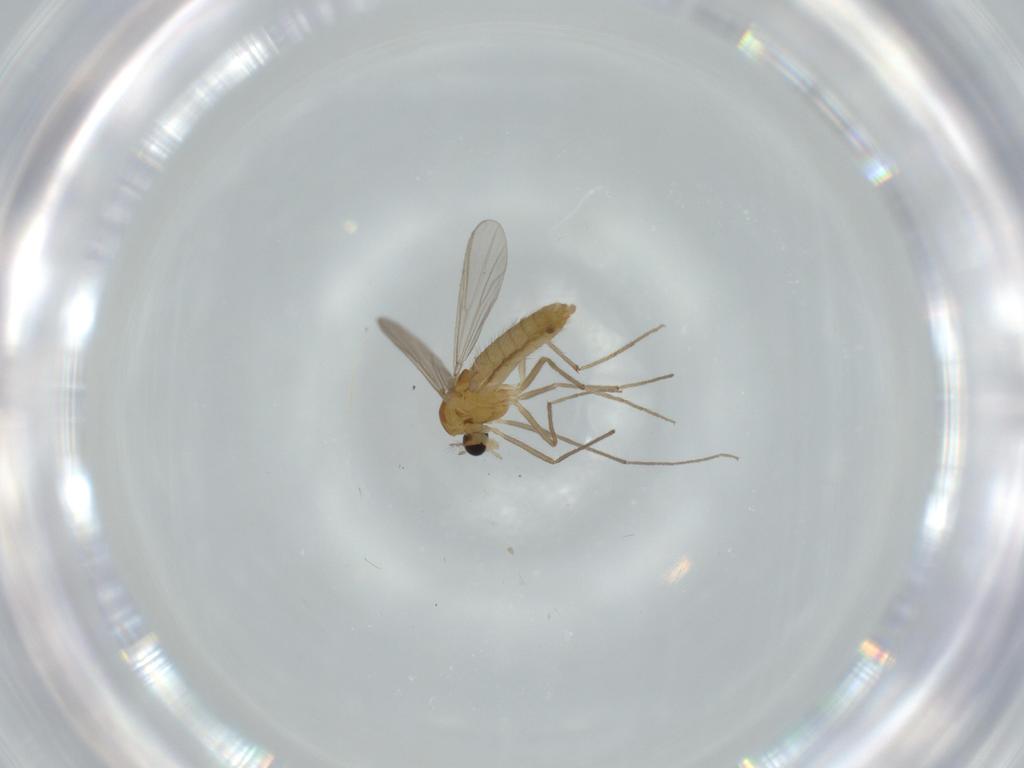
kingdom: Animalia
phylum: Arthropoda
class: Insecta
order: Diptera
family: Chironomidae
